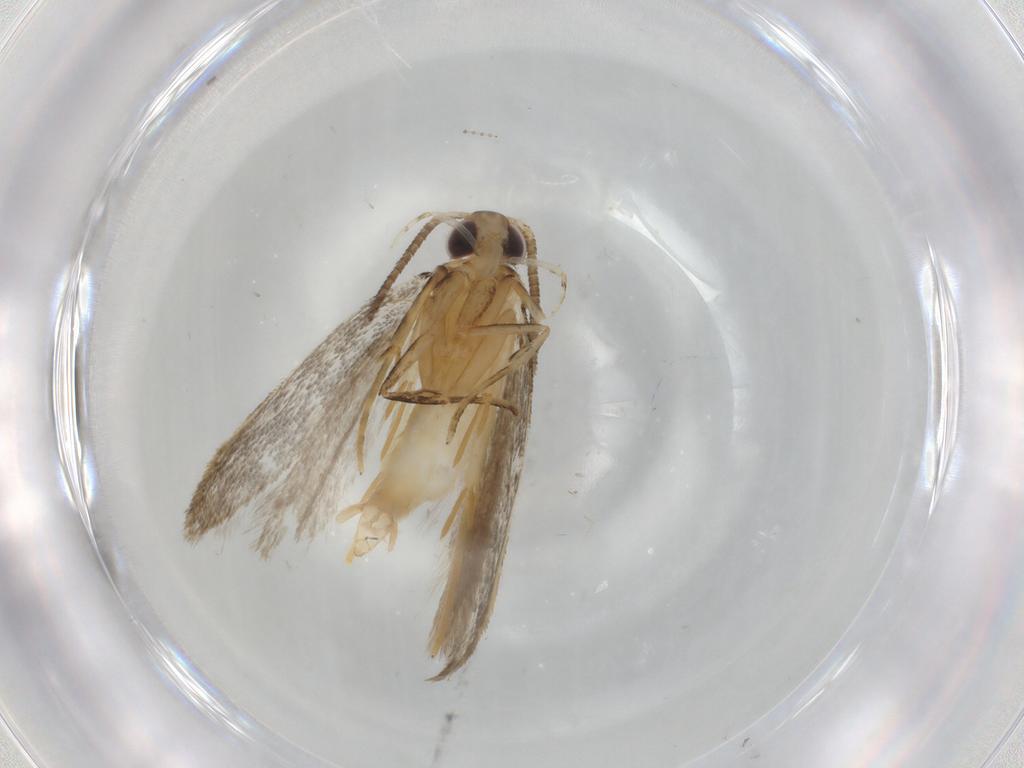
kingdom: Animalia
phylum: Arthropoda
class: Insecta
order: Lepidoptera
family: Autostichidae
